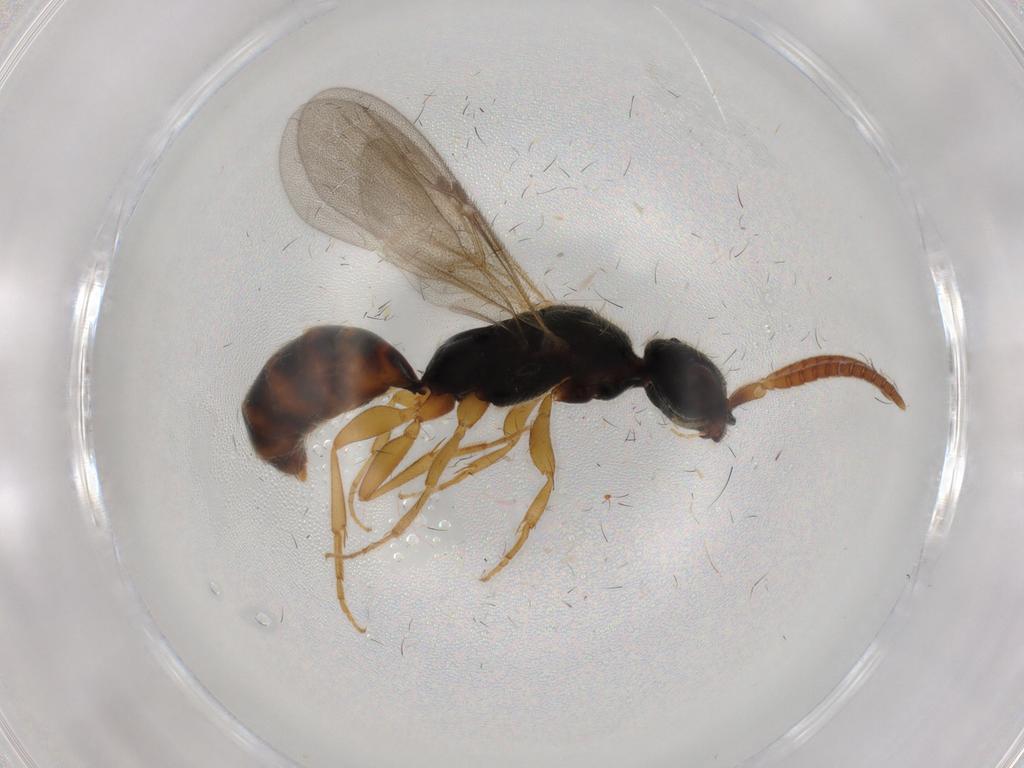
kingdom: Animalia
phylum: Arthropoda
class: Insecta
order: Hymenoptera
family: Bethylidae
